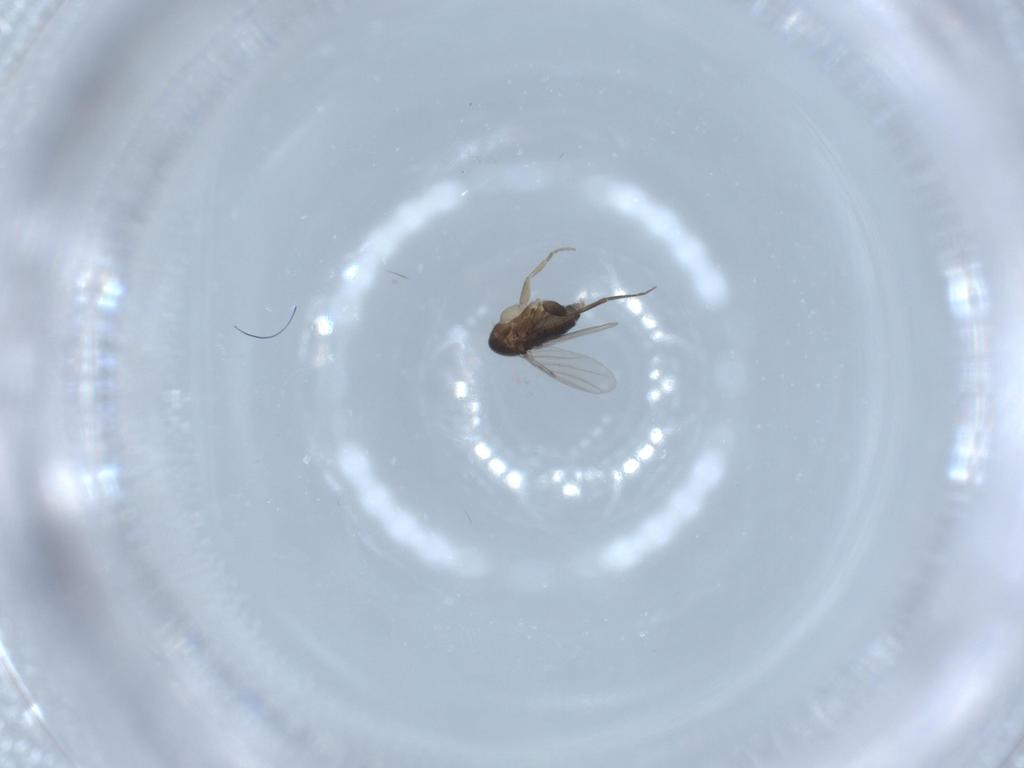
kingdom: Animalia
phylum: Arthropoda
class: Insecta
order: Diptera
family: Phoridae
